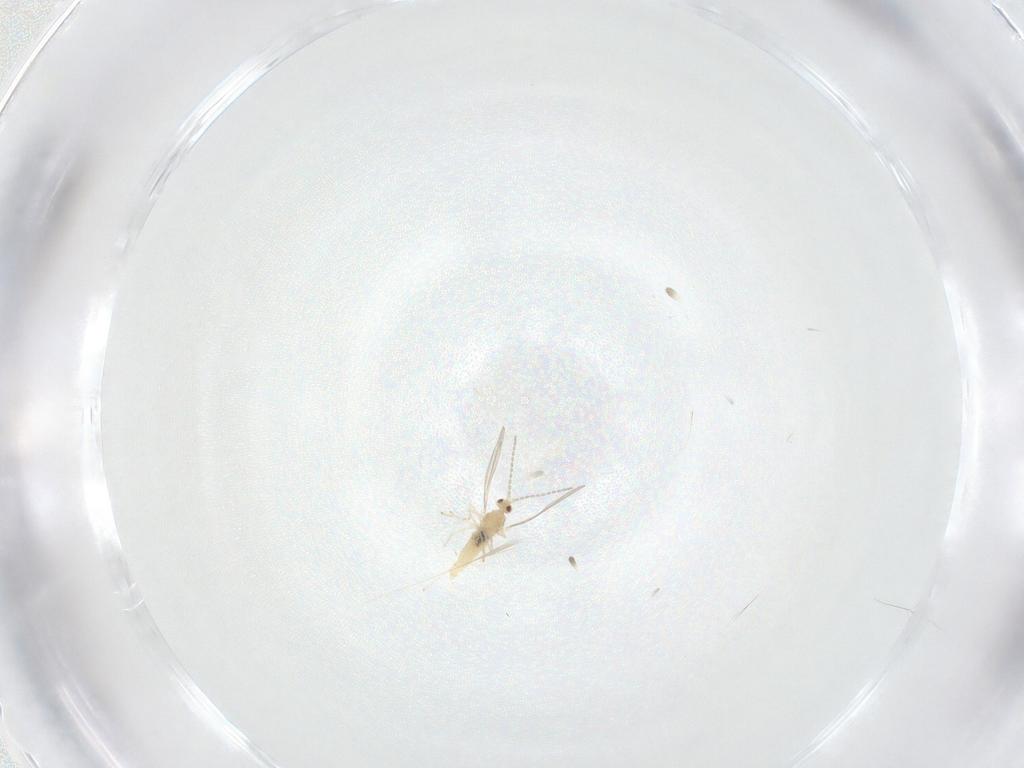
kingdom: Animalia
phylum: Arthropoda
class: Insecta
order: Diptera
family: Cecidomyiidae
